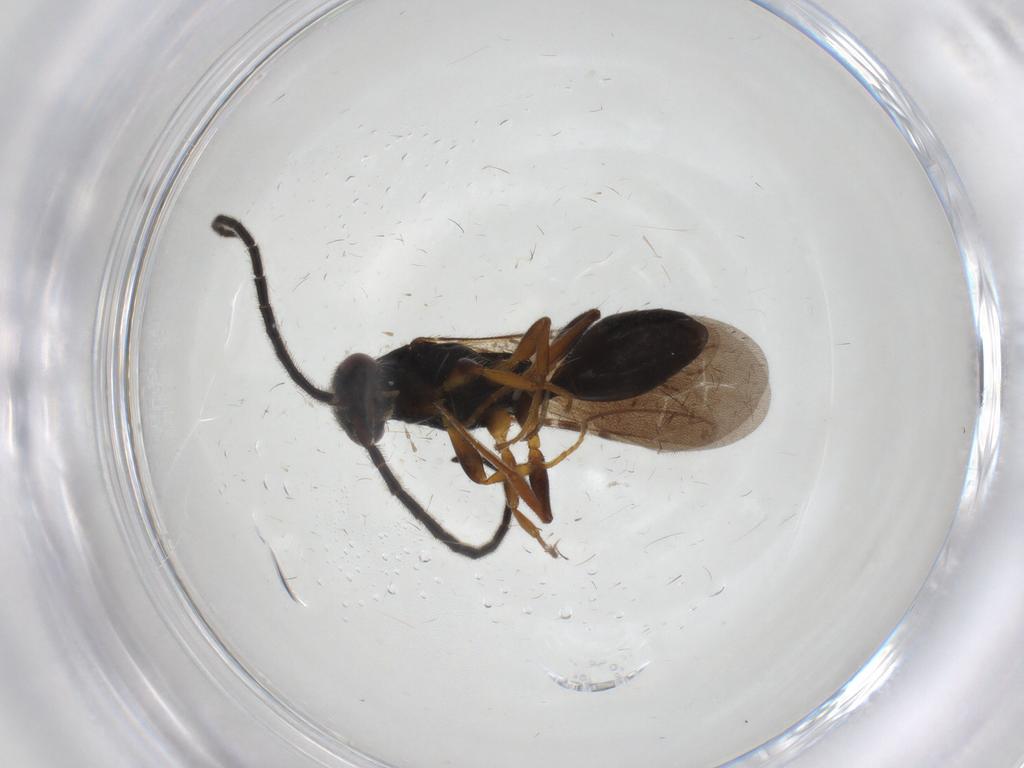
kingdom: Animalia
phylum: Arthropoda
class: Insecta
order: Hymenoptera
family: Bethylidae
